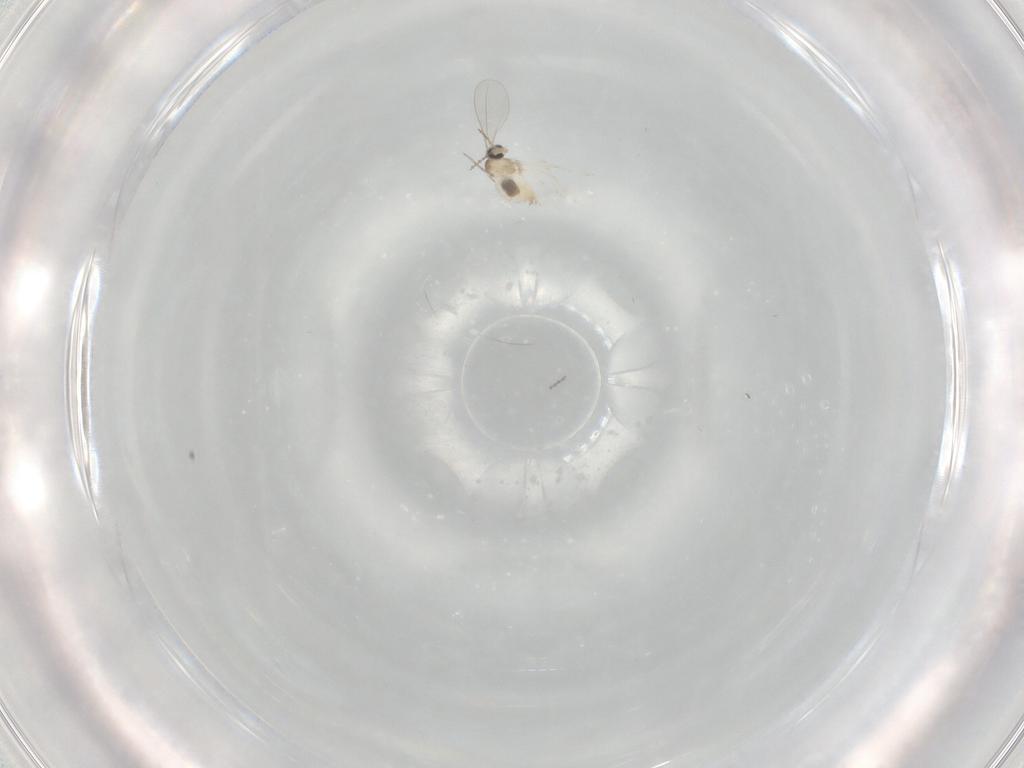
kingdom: Animalia
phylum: Arthropoda
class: Insecta
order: Diptera
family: Cecidomyiidae
